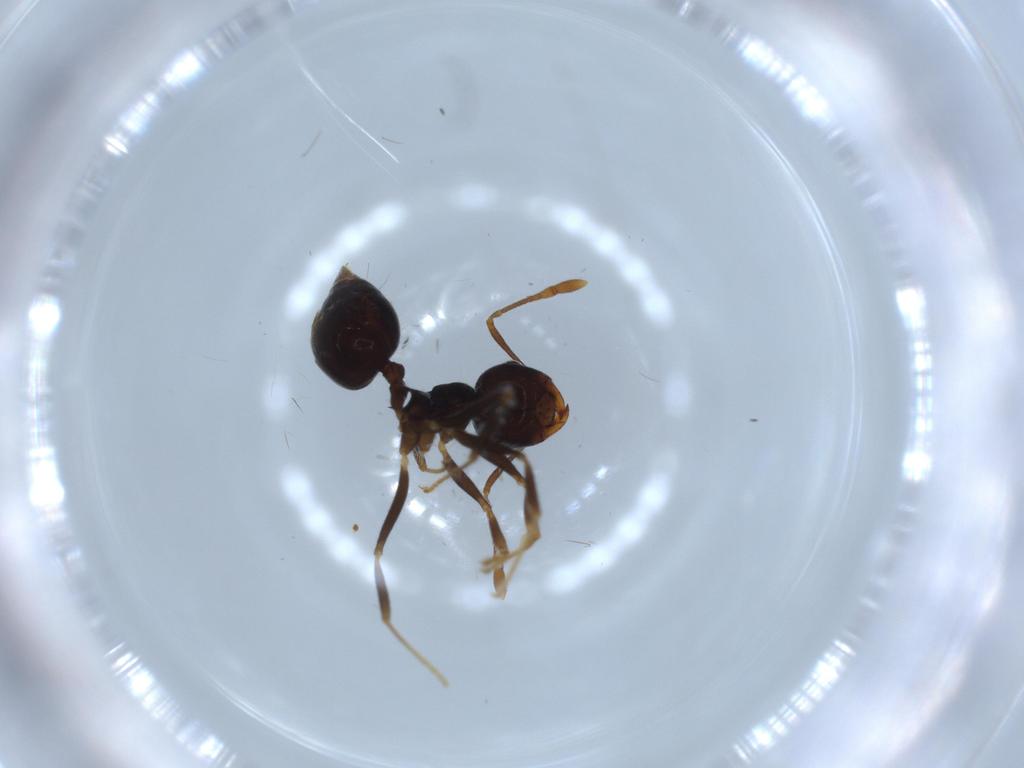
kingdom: Animalia
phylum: Arthropoda
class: Insecta
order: Hymenoptera
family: Formicidae
